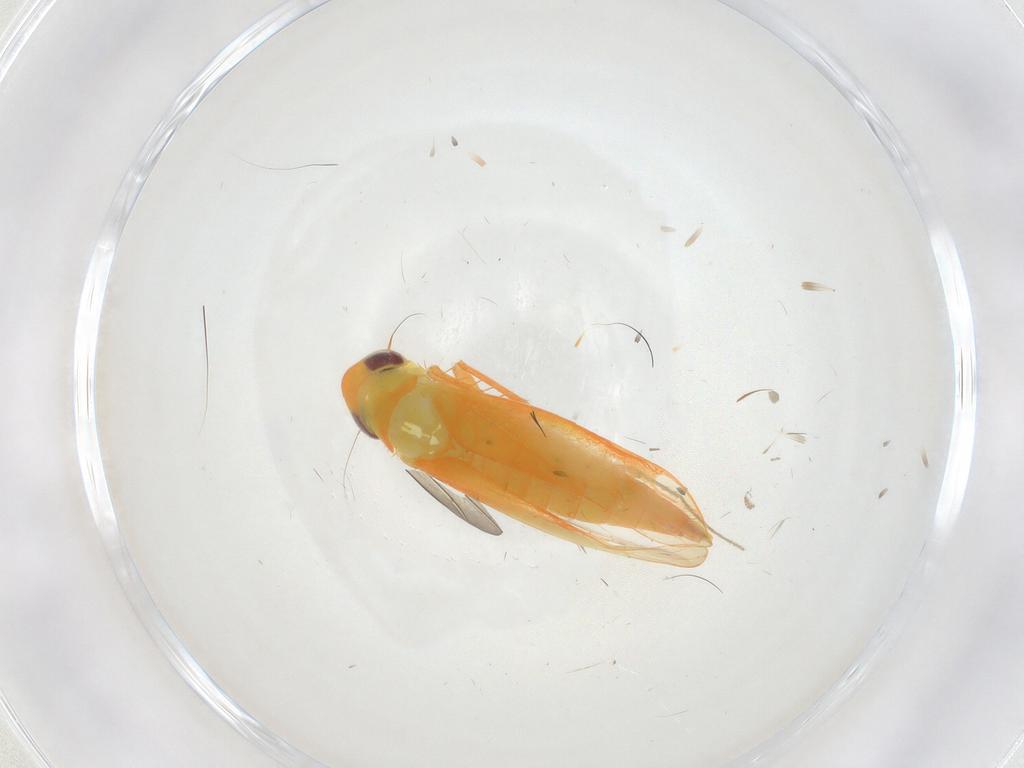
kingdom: Animalia
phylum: Arthropoda
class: Insecta
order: Hemiptera
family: Cicadellidae
